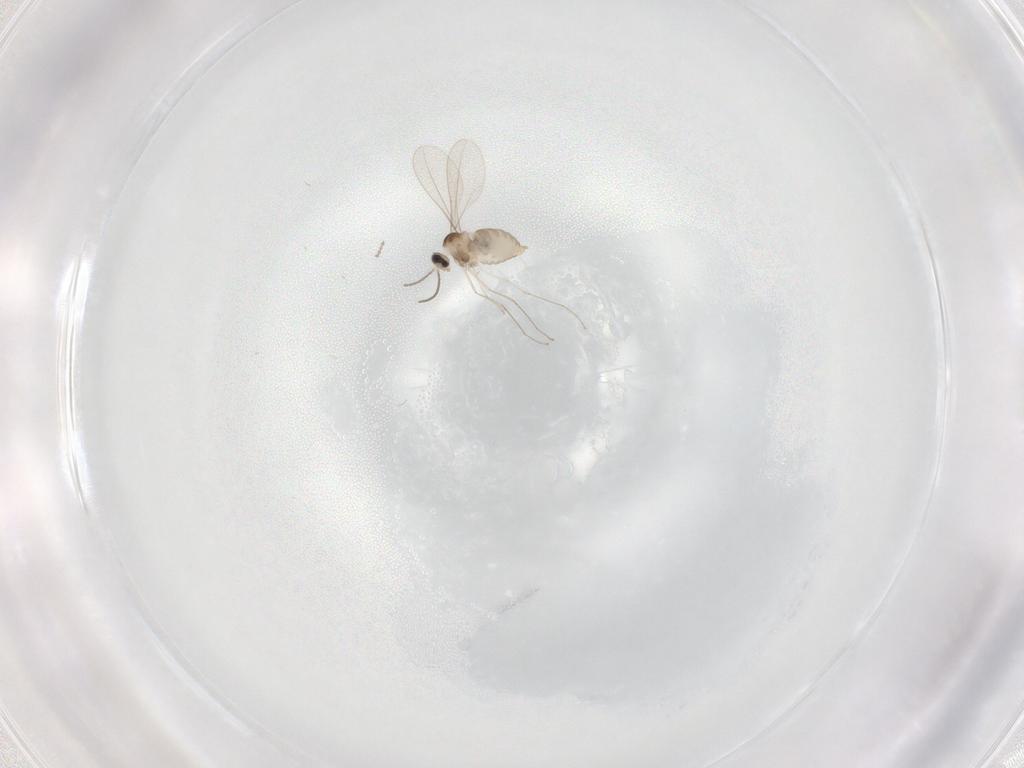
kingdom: Animalia
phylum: Arthropoda
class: Insecta
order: Diptera
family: Cecidomyiidae
